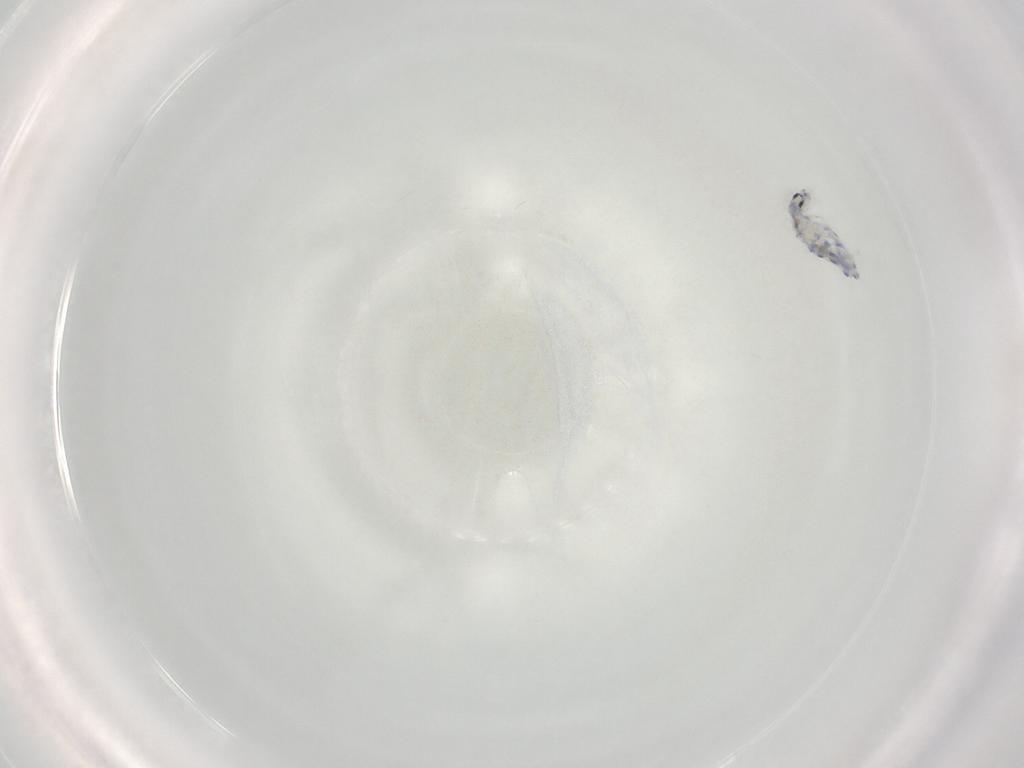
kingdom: Animalia
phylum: Arthropoda
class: Collembola
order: Entomobryomorpha
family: Entomobryidae
